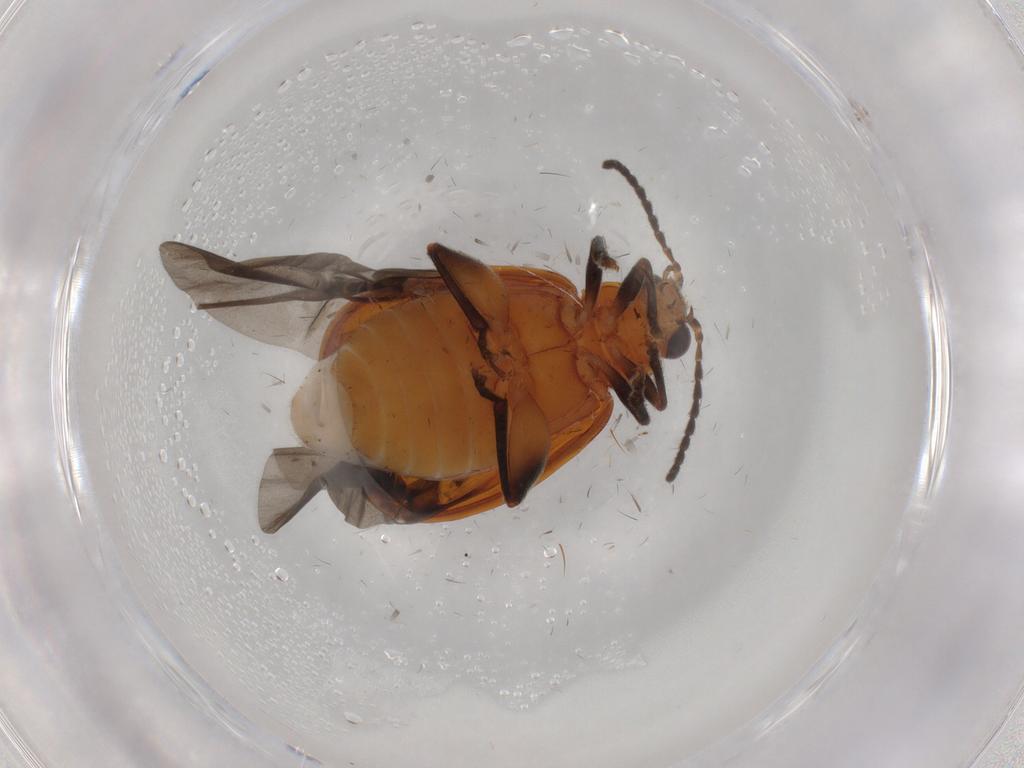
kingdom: Animalia
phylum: Arthropoda
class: Insecta
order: Coleoptera
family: Chrysomelidae
